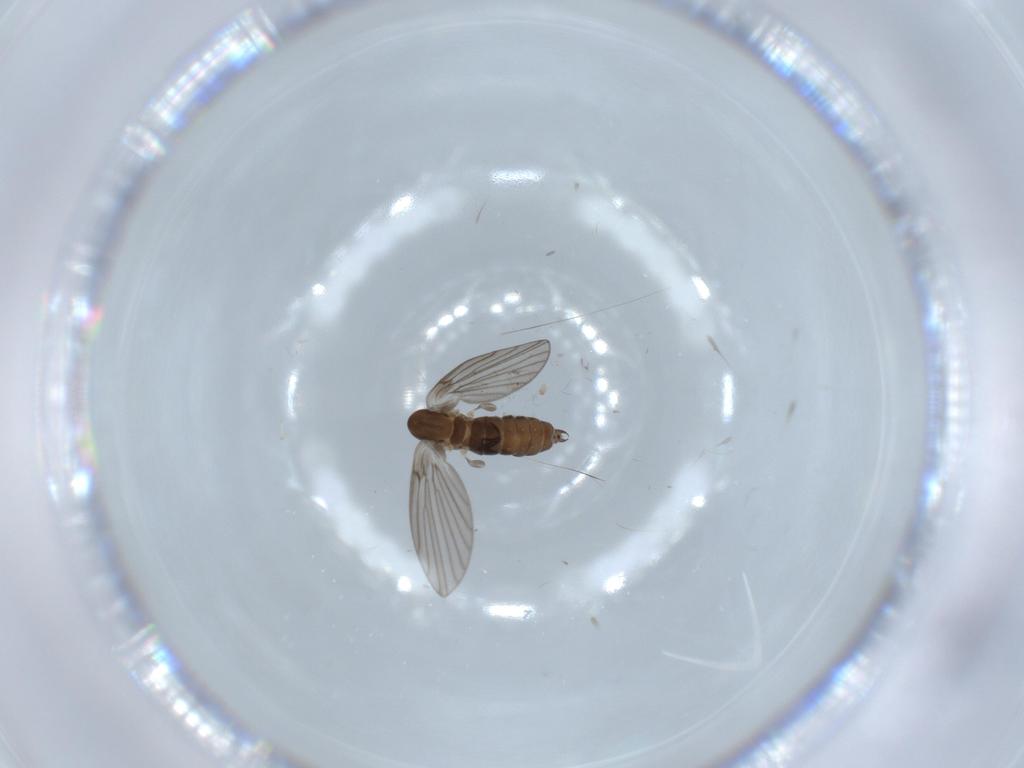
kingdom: Animalia
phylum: Arthropoda
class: Insecta
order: Diptera
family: Psychodidae
